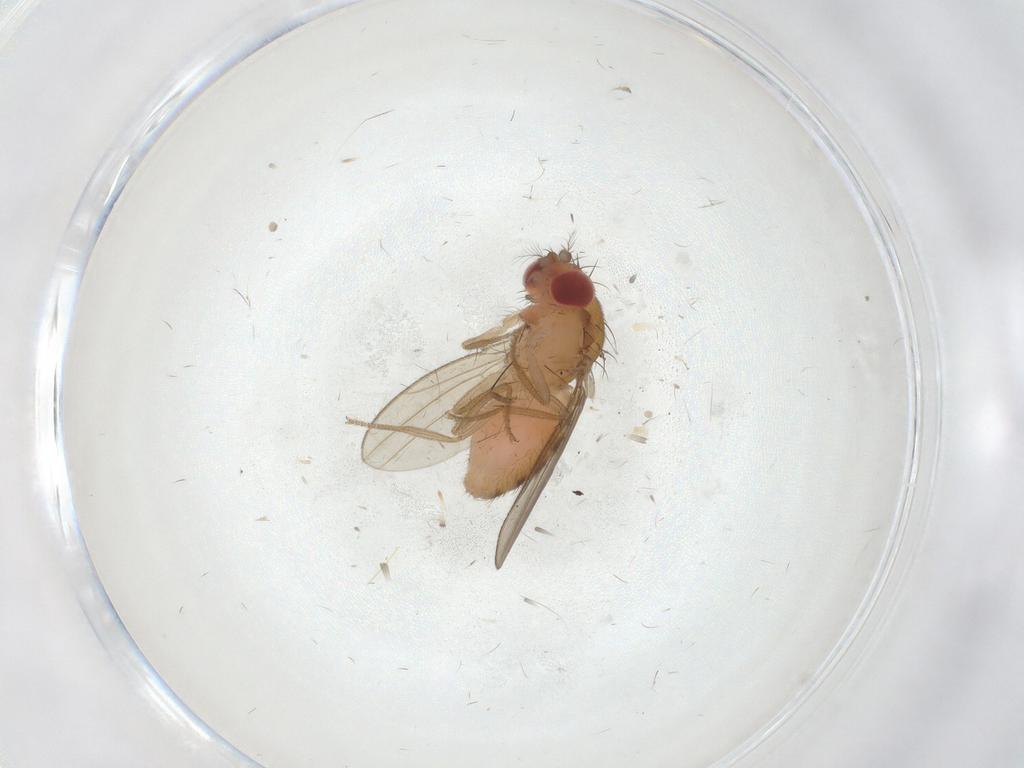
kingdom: Animalia
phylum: Arthropoda
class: Insecta
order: Diptera
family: Drosophilidae
